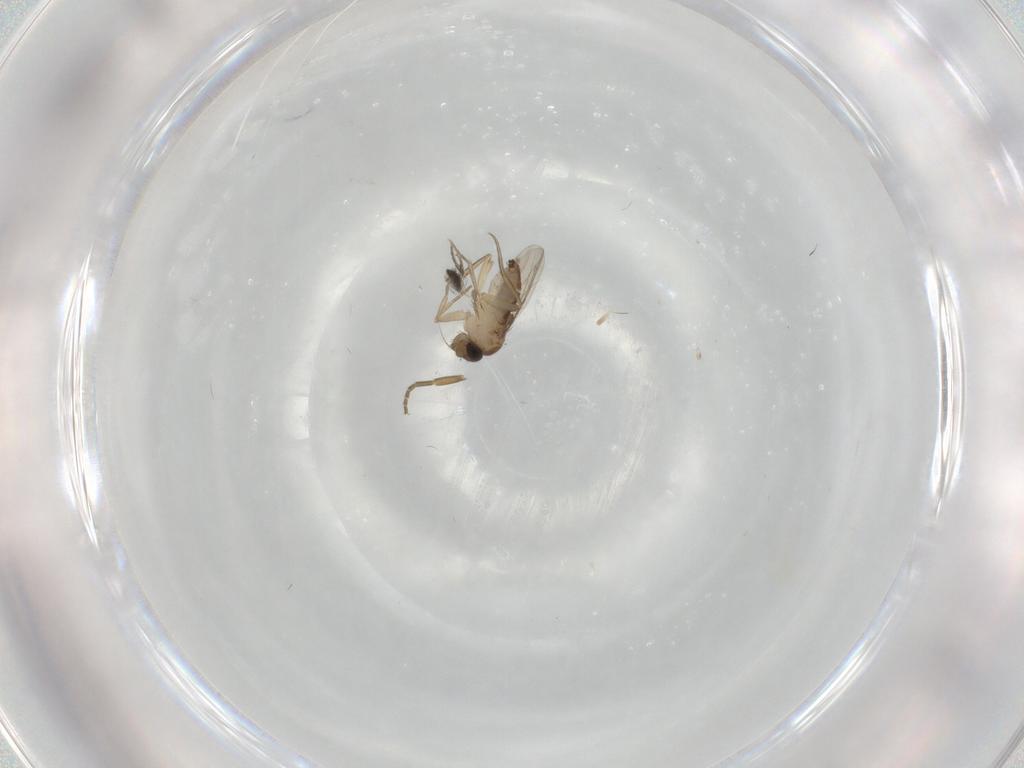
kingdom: Animalia
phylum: Arthropoda
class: Insecta
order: Diptera
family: Phoridae
